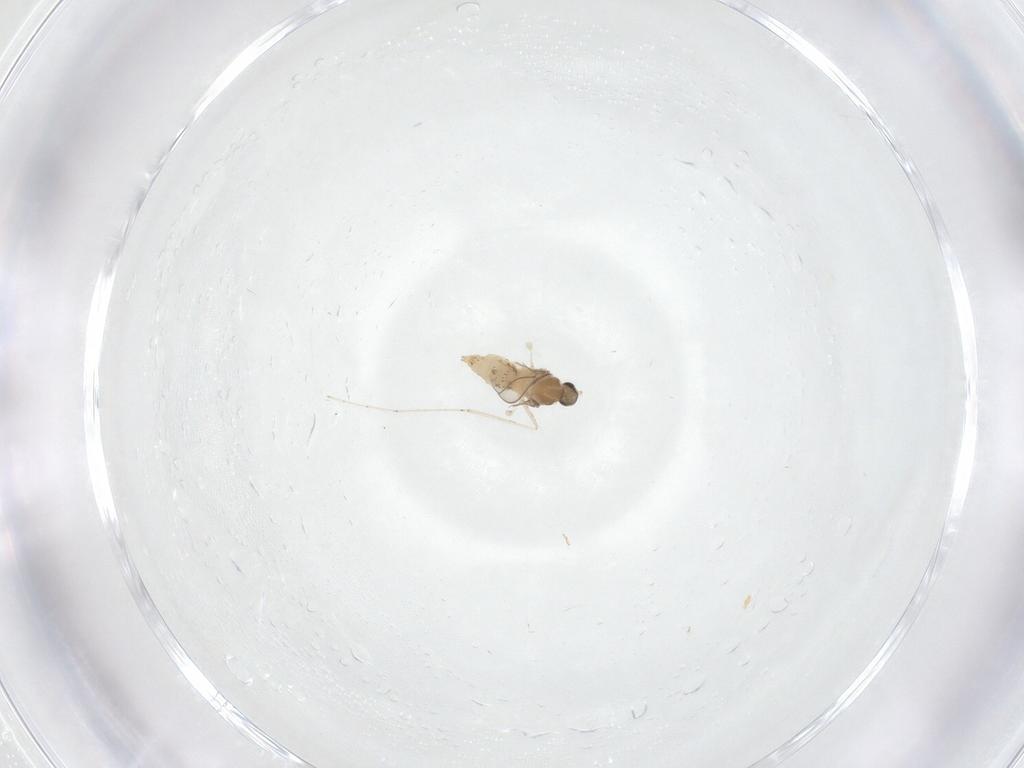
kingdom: Animalia
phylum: Arthropoda
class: Insecta
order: Diptera
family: Cecidomyiidae
